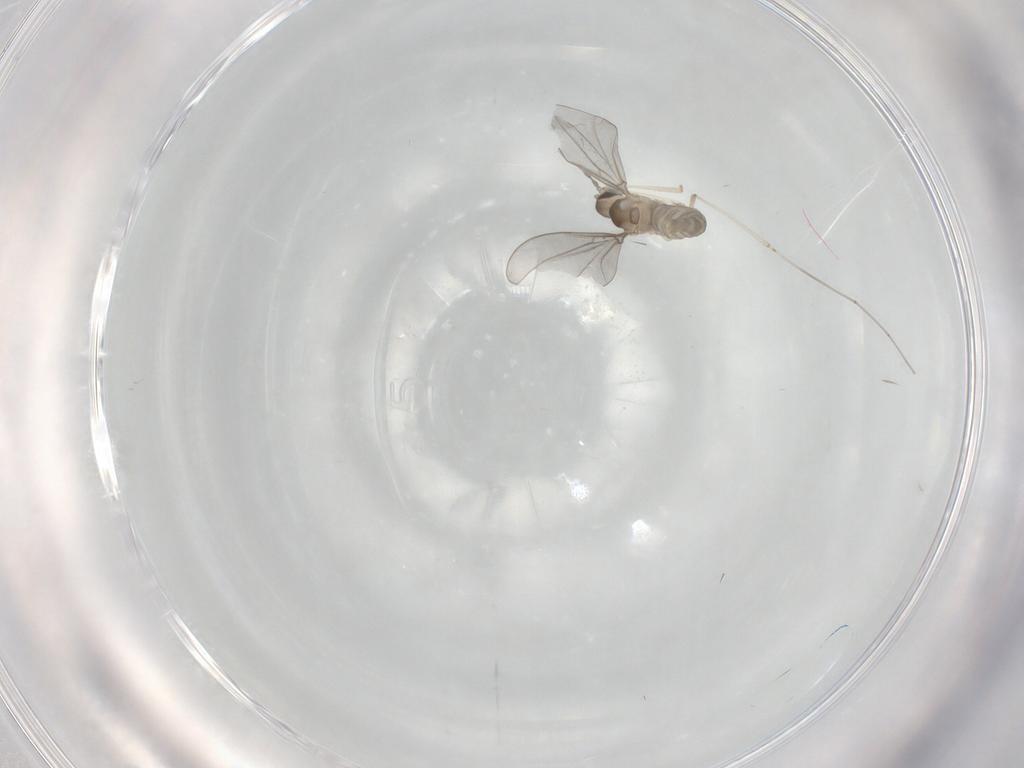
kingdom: Animalia
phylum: Arthropoda
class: Insecta
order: Diptera
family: Cecidomyiidae
